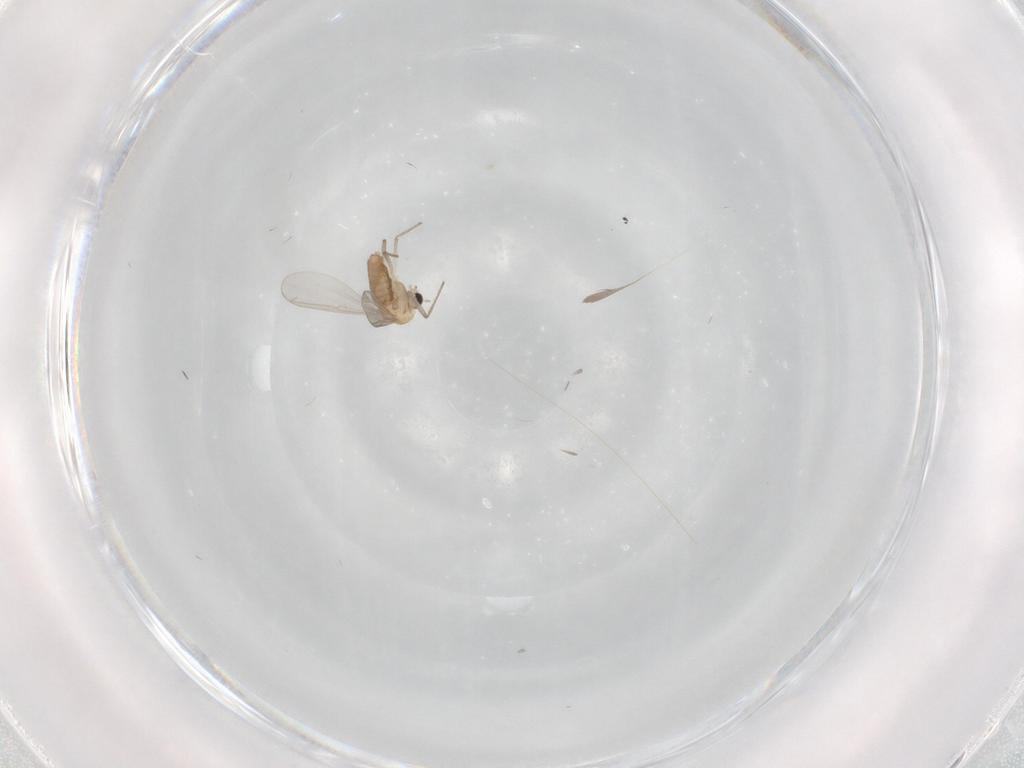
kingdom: Animalia
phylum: Arthropoda
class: Insecta
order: Diptera
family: Chironomidae
